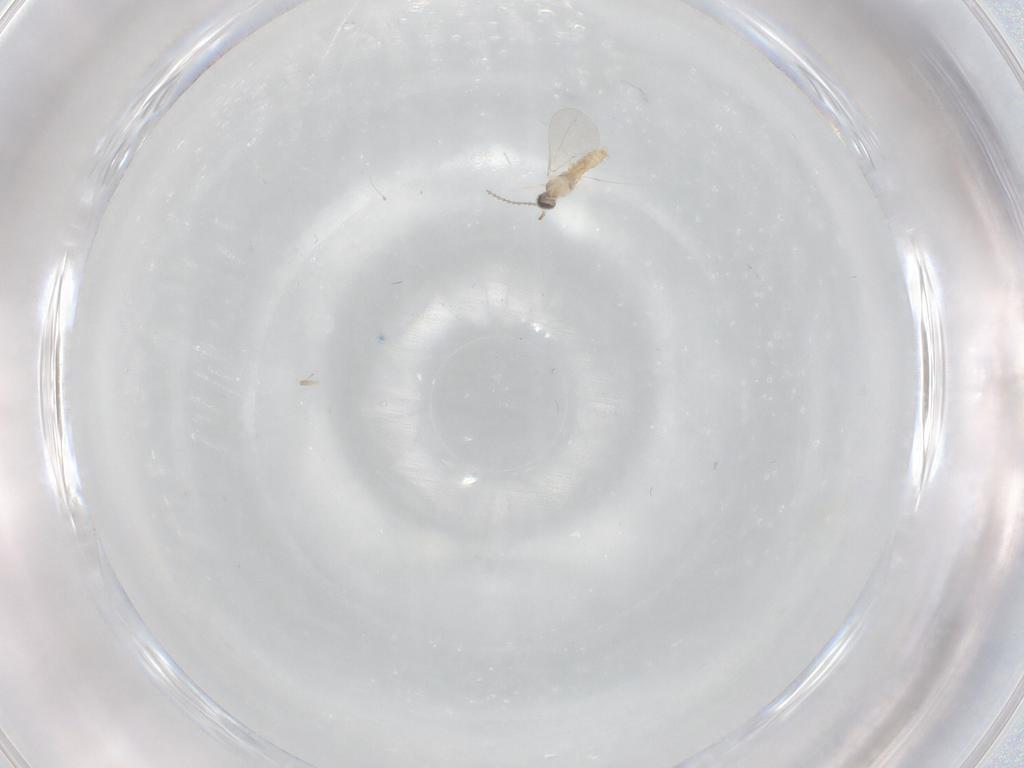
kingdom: Animalia
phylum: Arthropoda
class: Insecta
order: Diptera
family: Cecidomyiidae
